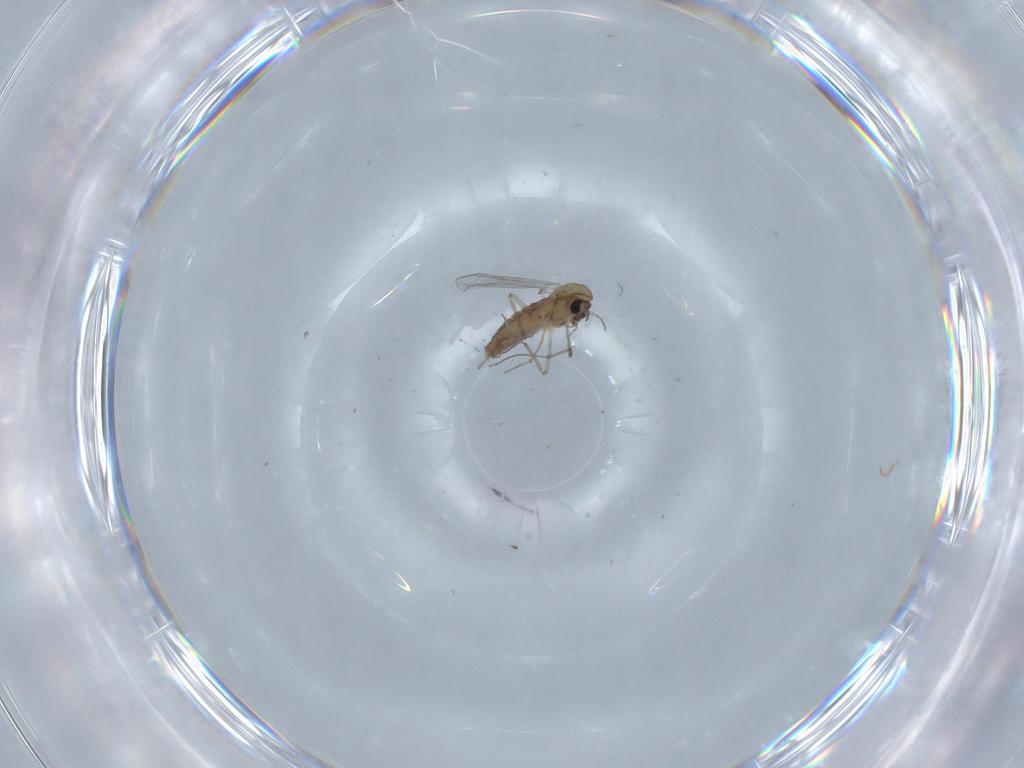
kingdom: Animalia
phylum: Arthropoda
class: Insecta
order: Diptera
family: Chironomidae
